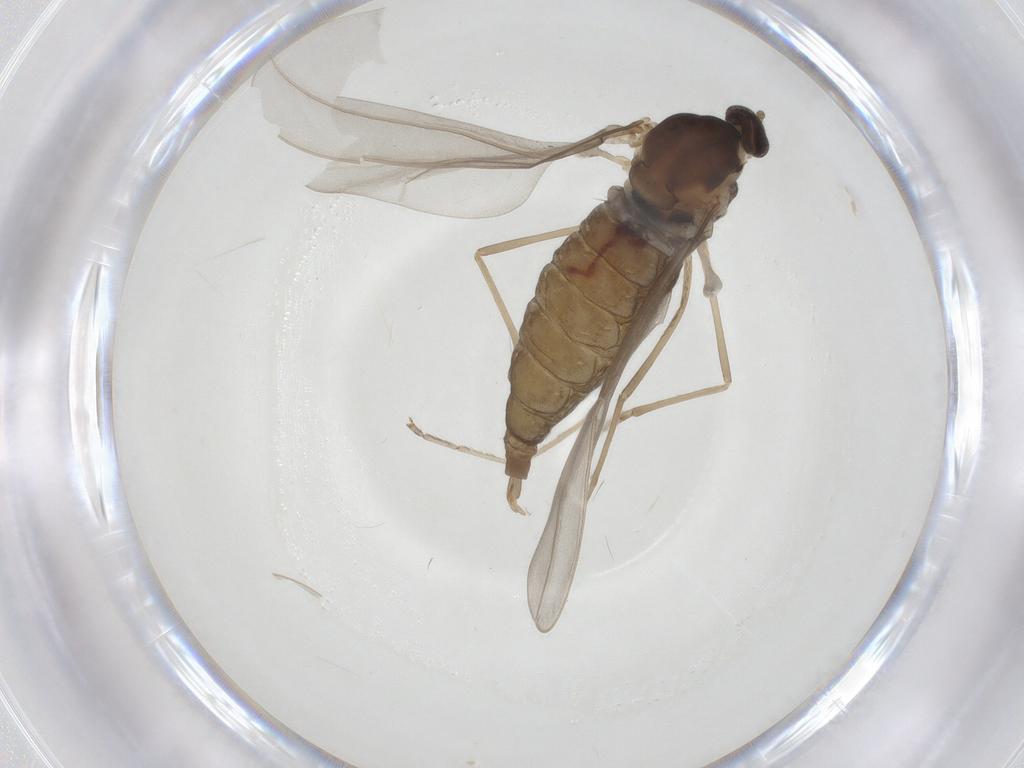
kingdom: Animalia
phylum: Arthropoda
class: Insecta
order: Diptera
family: Cecidomyiidae
